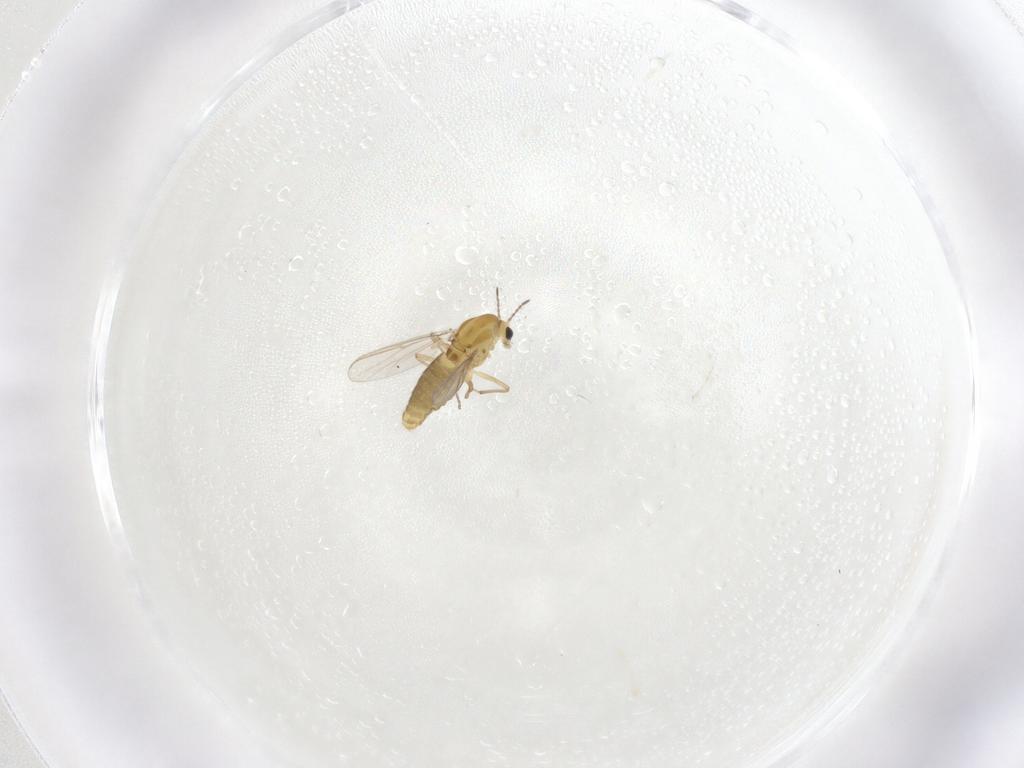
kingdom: Animalia
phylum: Arthropoda
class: Insecta
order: Diptera
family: Chironomidae
